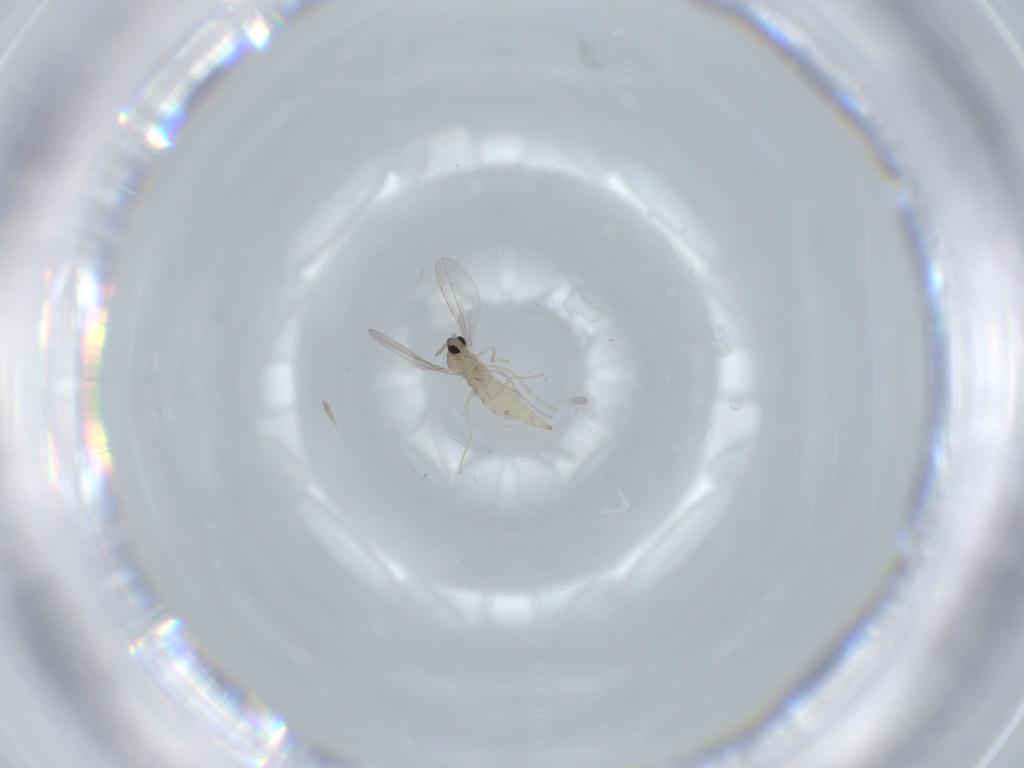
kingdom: Animalia
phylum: Arthropoda
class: Insecta
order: Diptera
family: Cecidomyiidae
